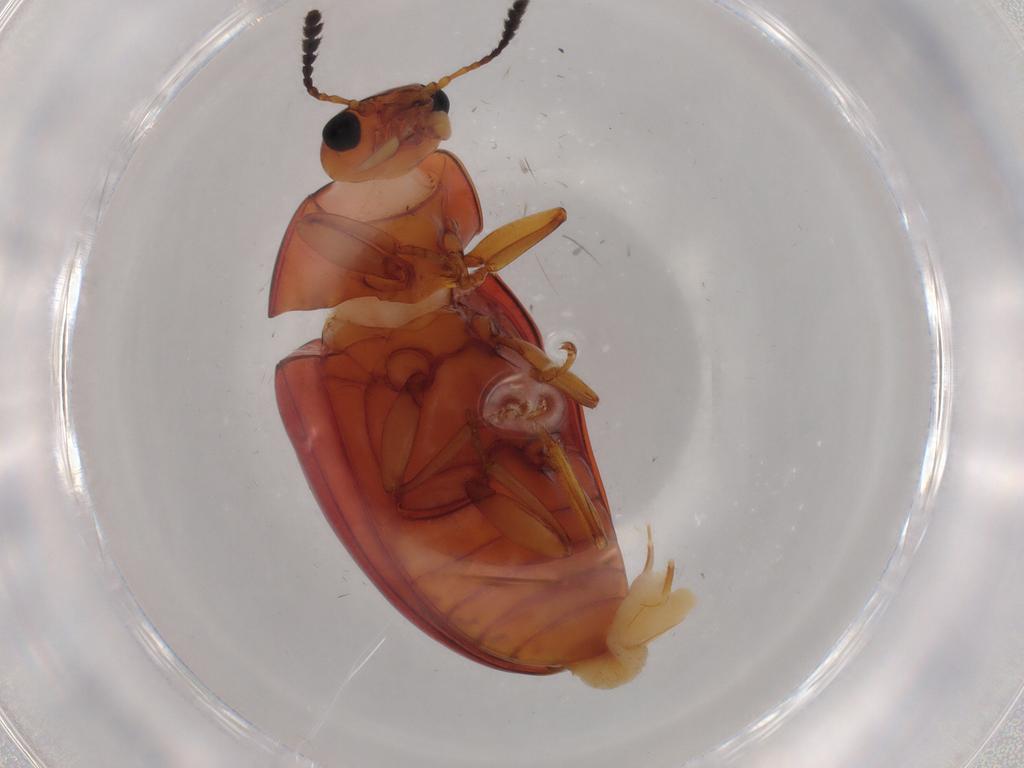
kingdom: Animalia
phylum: Arthropoda
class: Insecta
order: Coleoptera
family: Erotylidae
